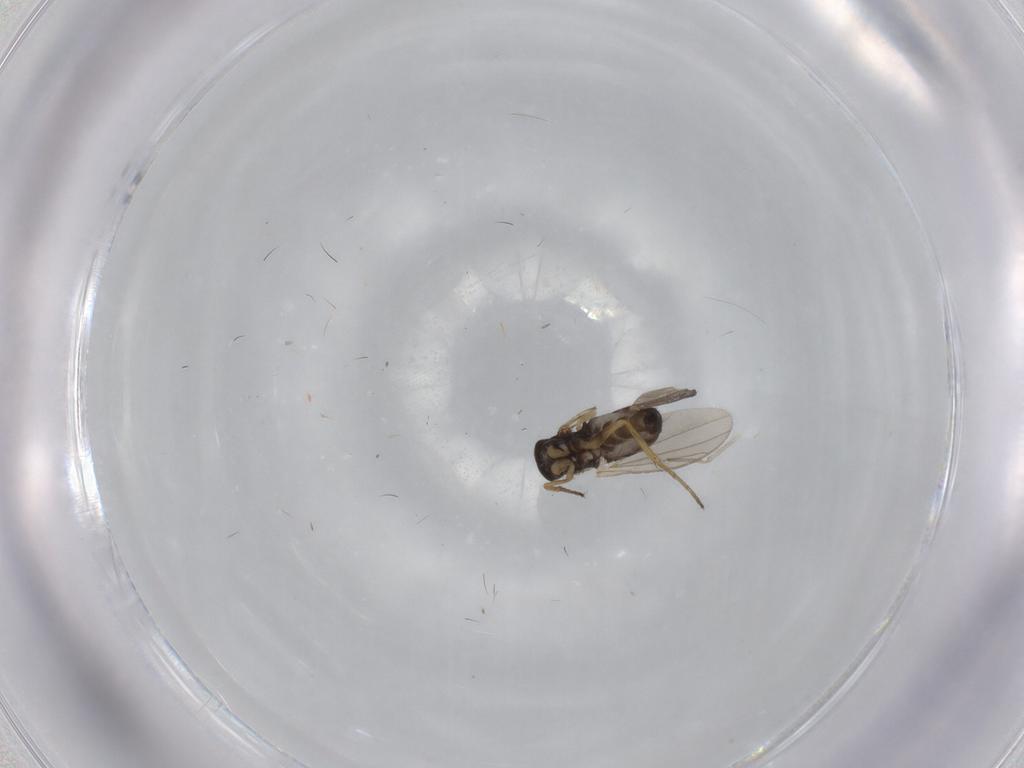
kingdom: Animalia
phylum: Arthropoda
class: Insecta
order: Diptera
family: Dolichopodidae
